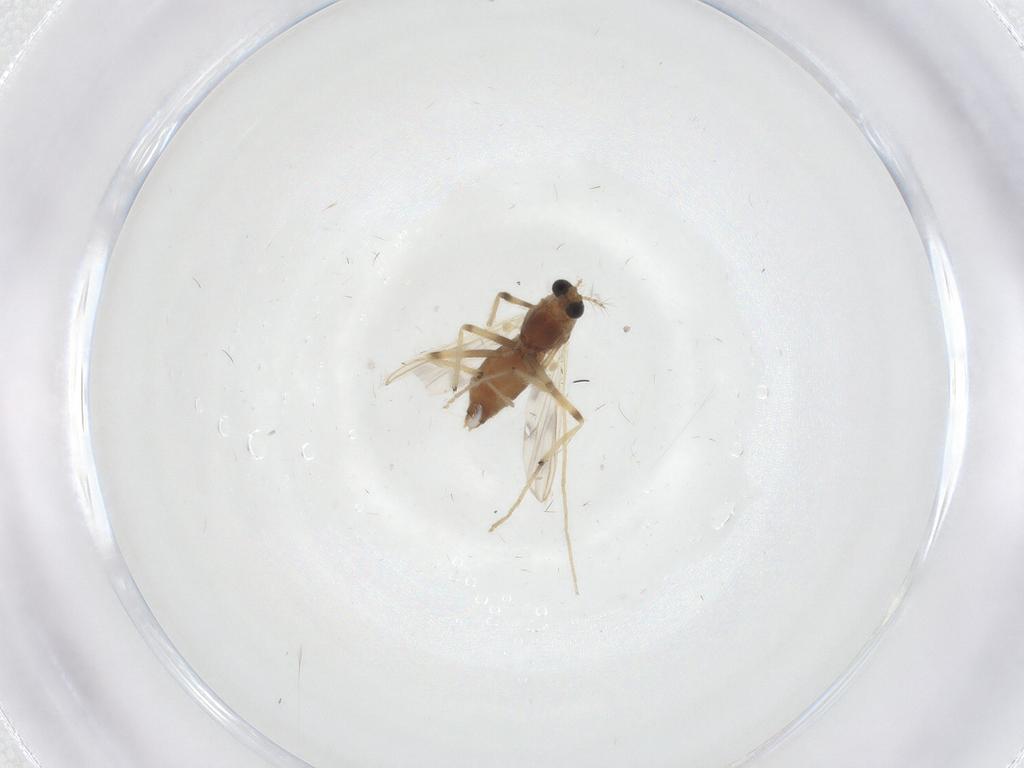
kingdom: Animalia
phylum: Arthropoda
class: Insecta
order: Diptera
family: Chironomidae
